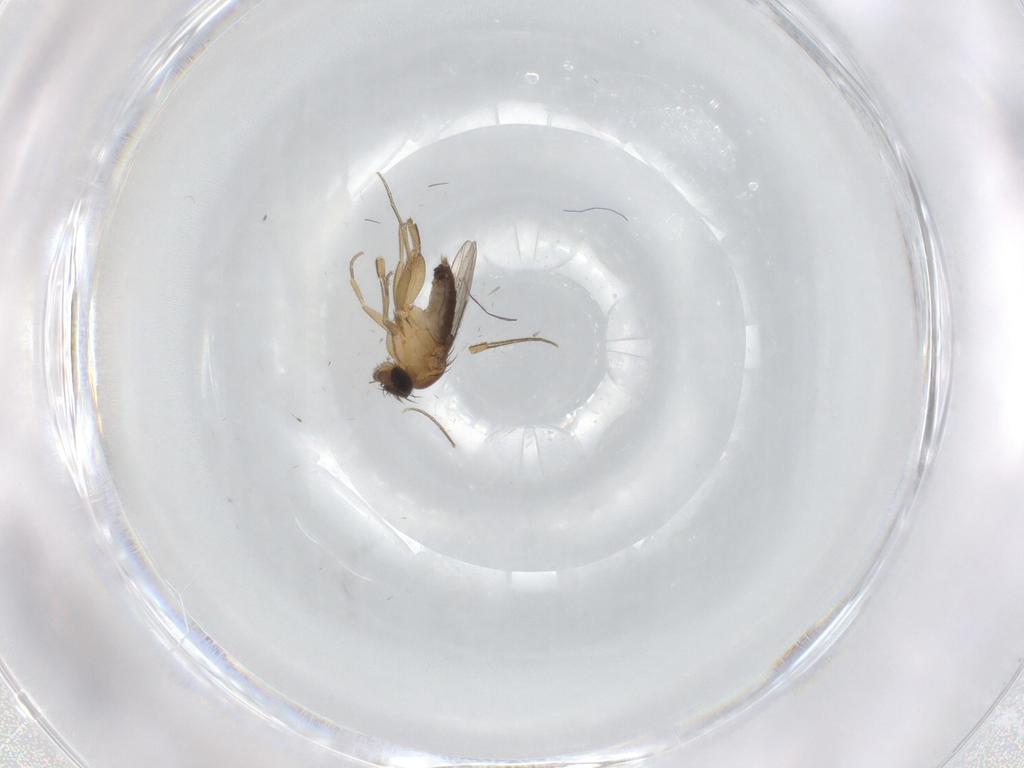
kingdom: Animalia
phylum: Arthropoda
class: Insecta
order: Diptera
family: Phoridae
